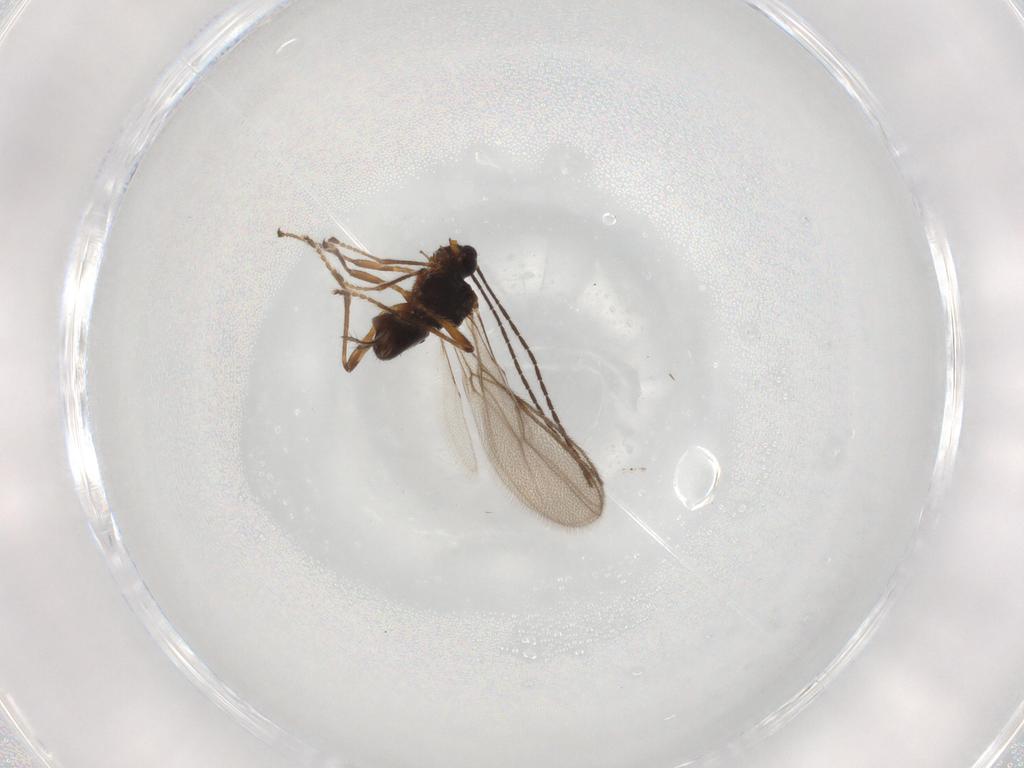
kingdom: Animalia
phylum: Arthropoda
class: Insecta
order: Hymenoptera
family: Braconidae
